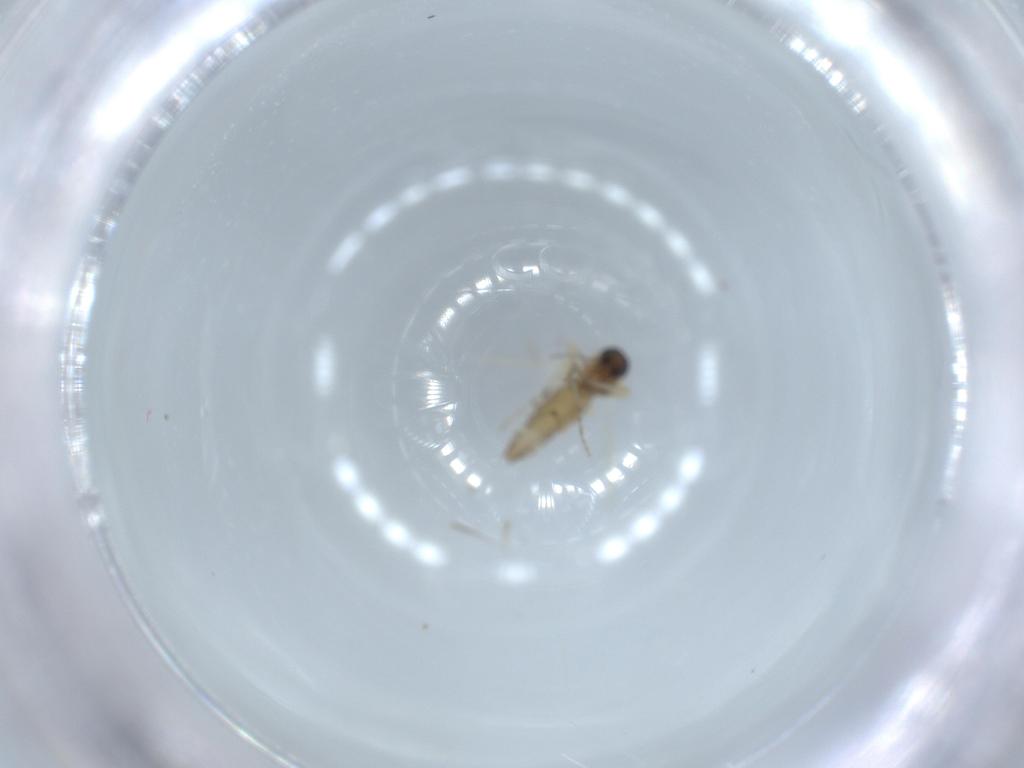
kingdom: Animalia
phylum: Arthropoda
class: Insecta
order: Diptera
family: Ceratopogonidae
